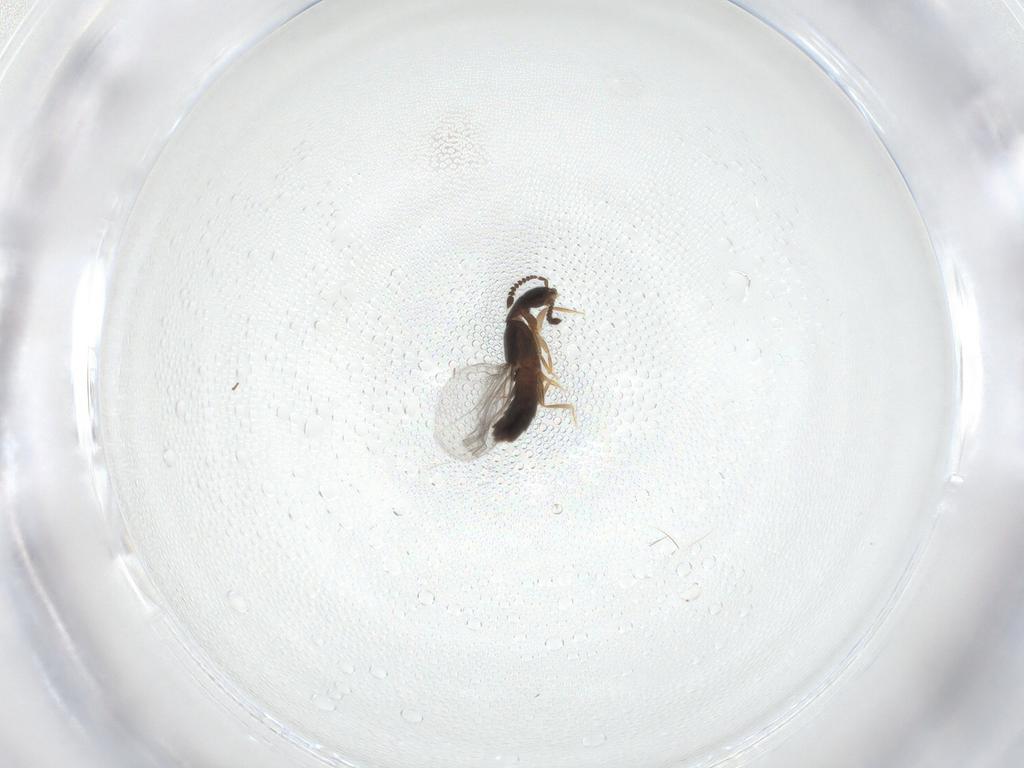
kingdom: Animalia
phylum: Arthropoda
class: Insecta
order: Coleoptera
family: Staphylinidae
